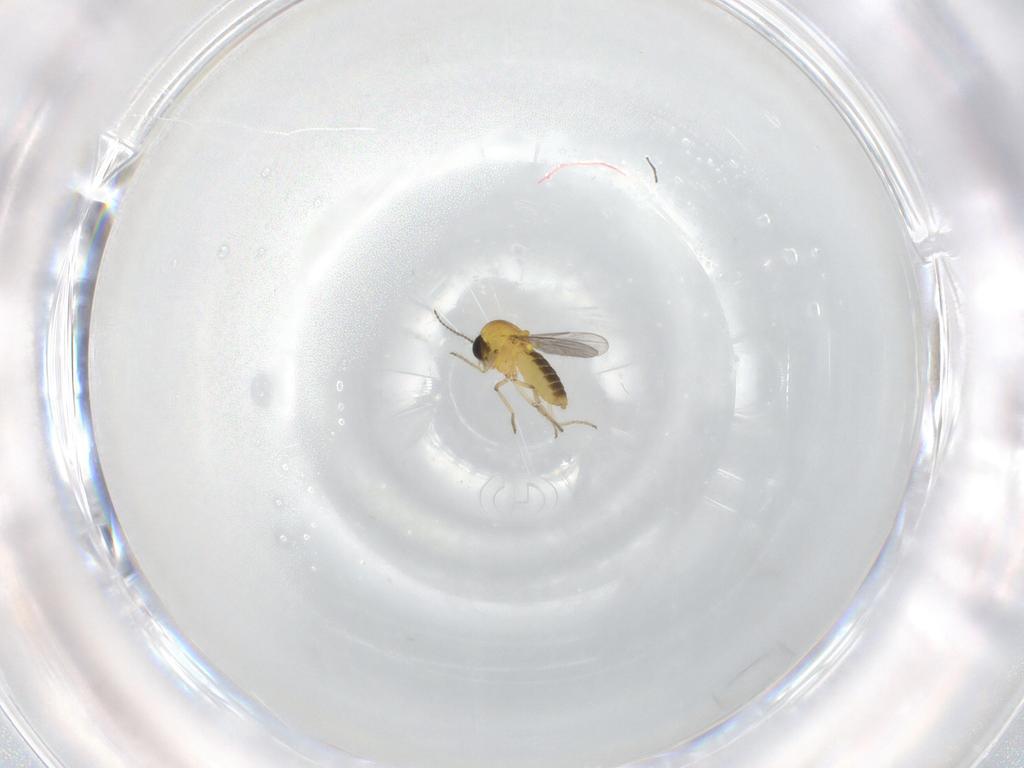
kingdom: Animalia
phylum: Arthropoda
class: Insecta
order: Diptera
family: Ceratopogonidae
